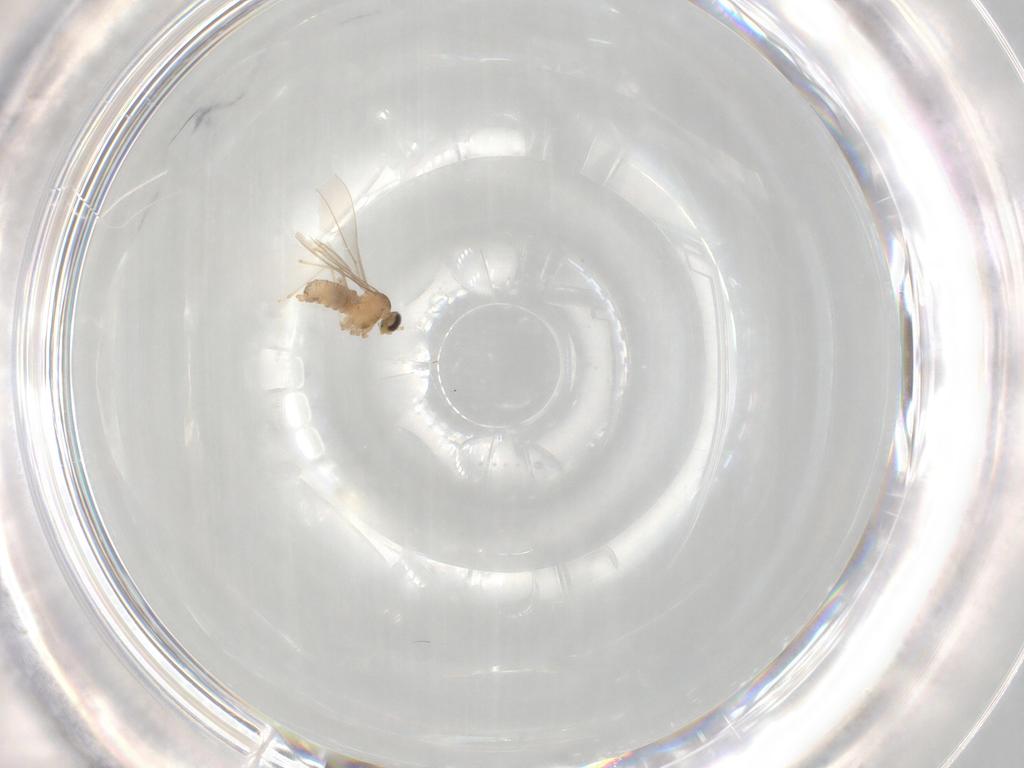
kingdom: Animalia
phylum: Arthropoda
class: Insecta
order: Diptera
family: Cecidomyiidae
